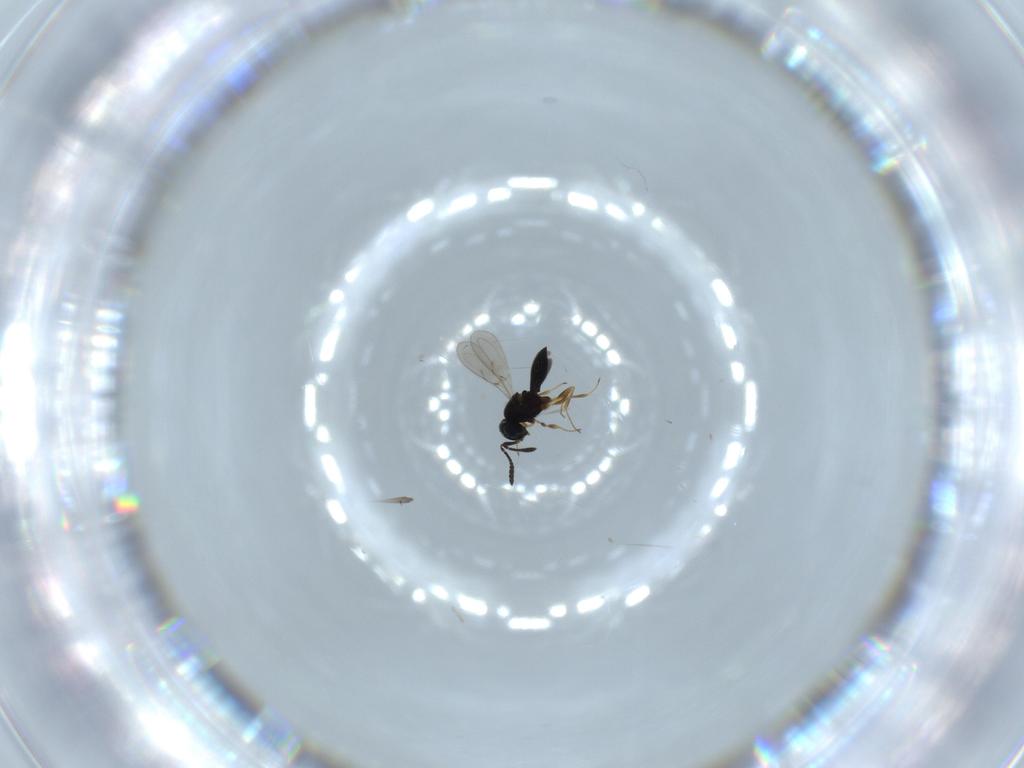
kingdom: Animalia
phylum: Arthropoda
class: Insecta
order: Hymenoptera
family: Scelionidae
